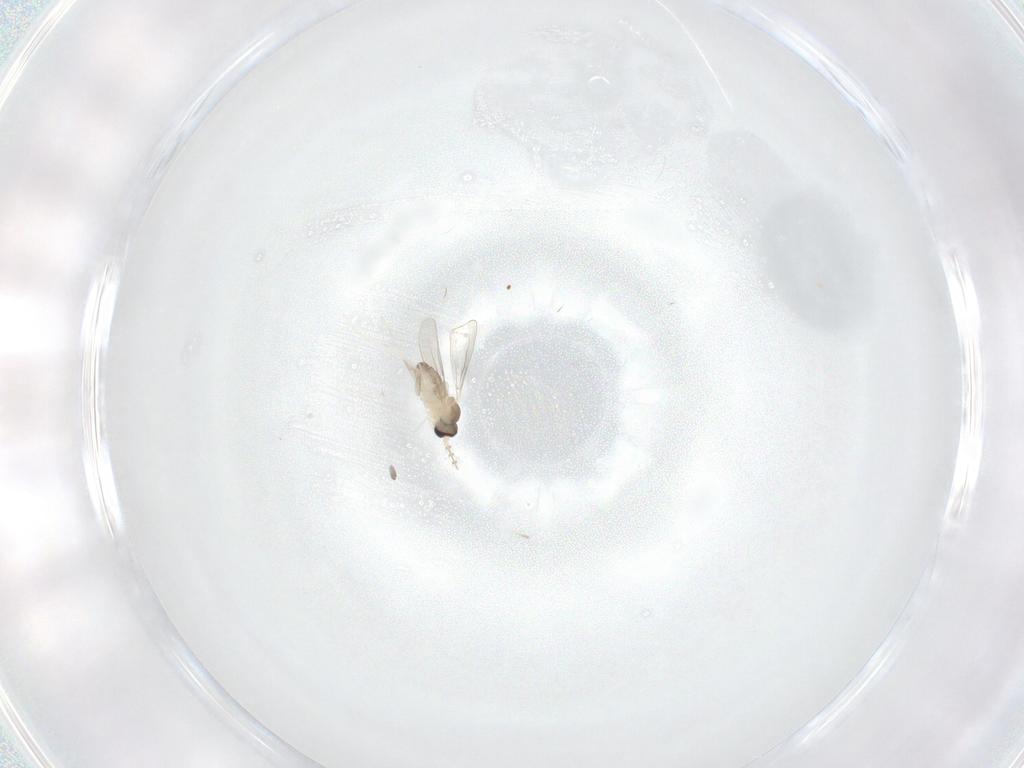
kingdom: Animalia
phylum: Arthropoda
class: Insecta
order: Diptera
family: Cecidomyiidae
